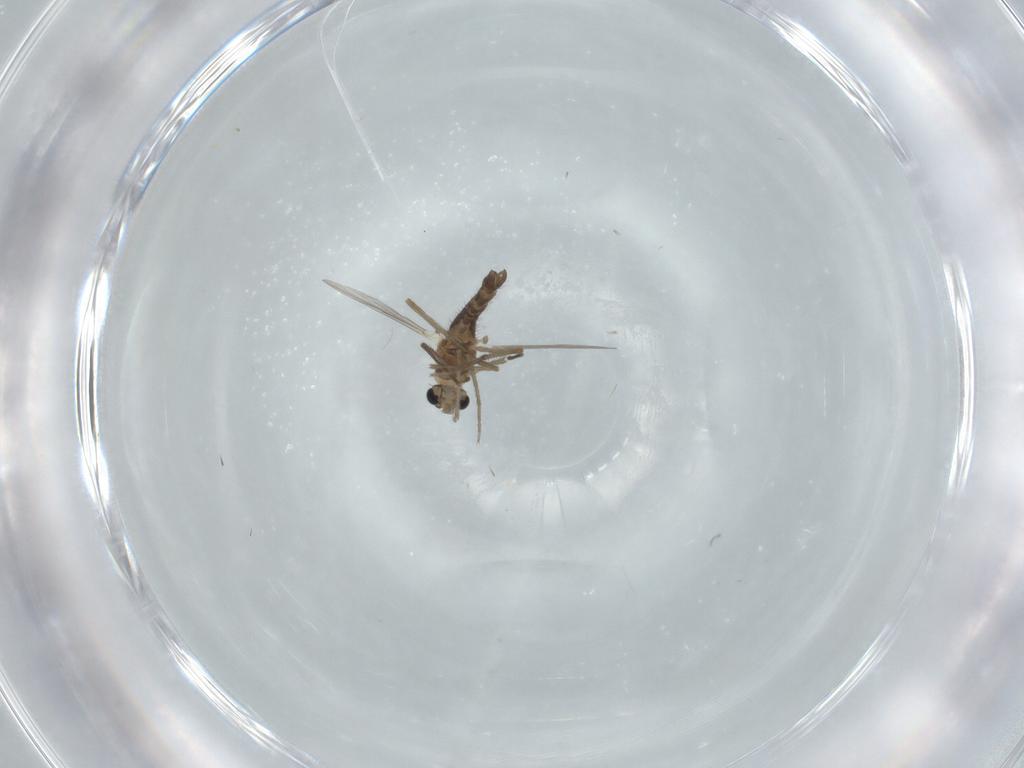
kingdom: Animalia
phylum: Arthropoda
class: Insecta
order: Diptera
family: Chironomidae
